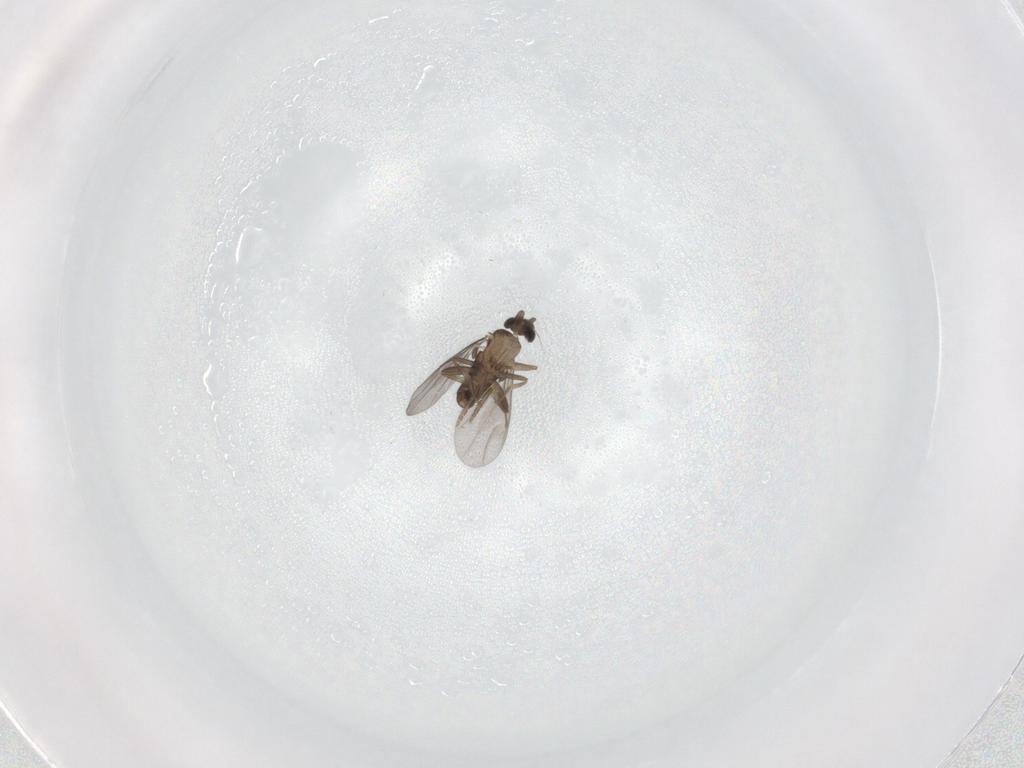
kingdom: Animalia
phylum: Arthropoda
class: Insecta
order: Diptera
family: Phoridae
